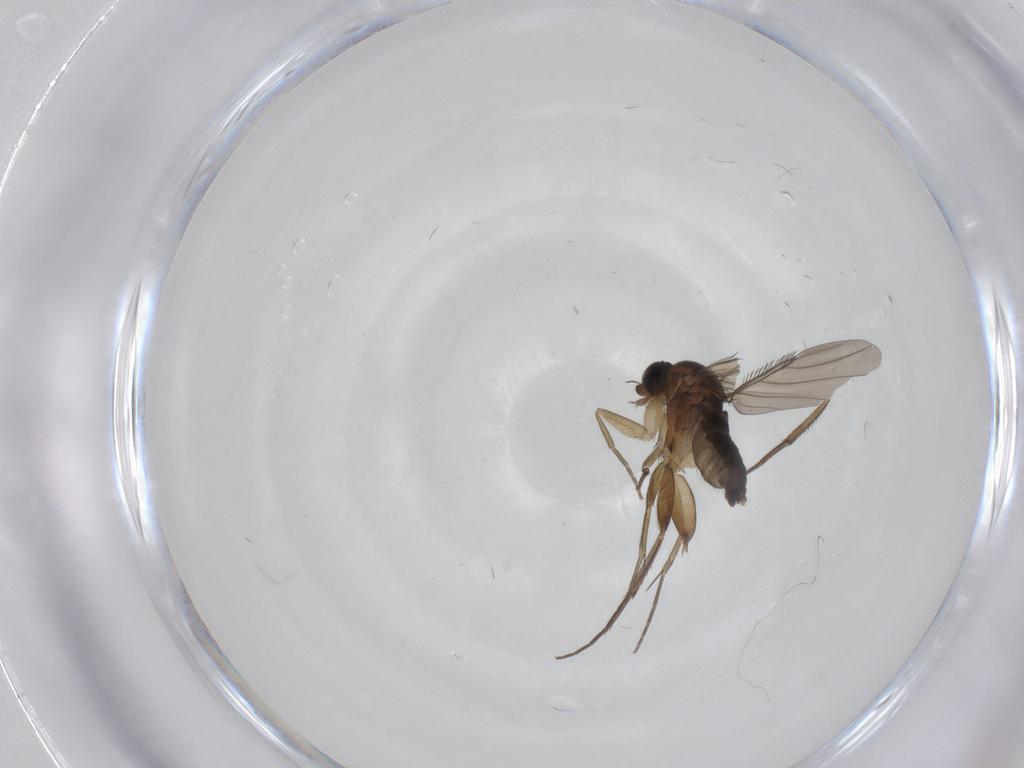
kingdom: Animalia
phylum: Arthropoda
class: Insecta
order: Diptera
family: Phoridae
